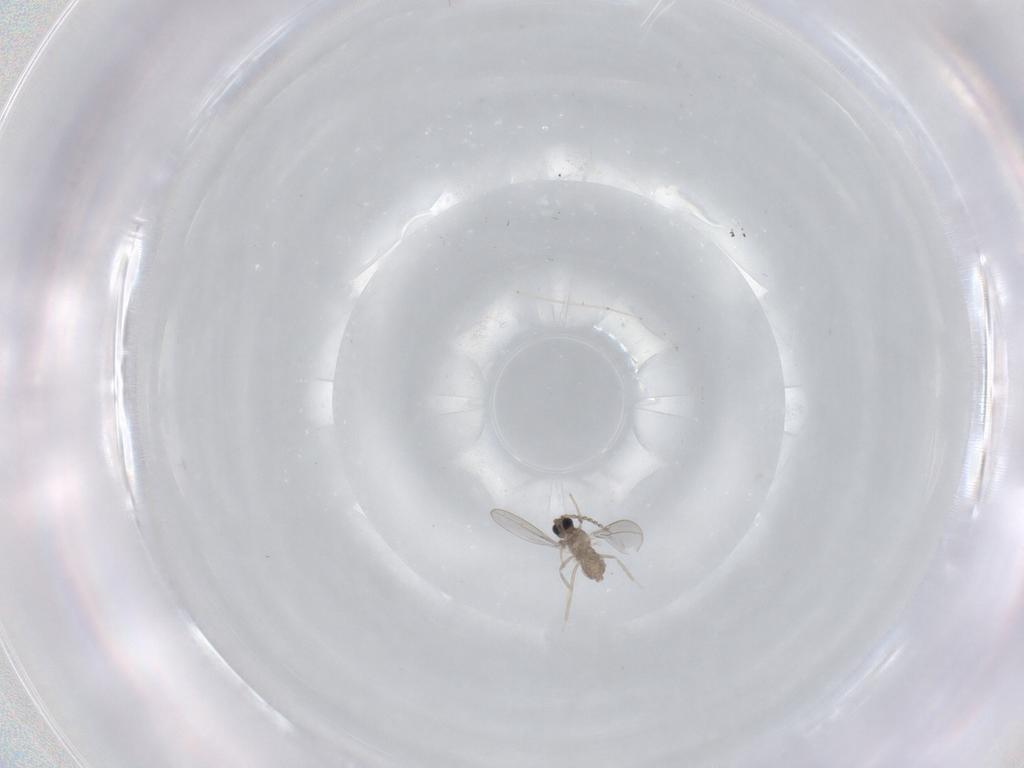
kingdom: Animalia
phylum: Arthropoda
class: Insecta
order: Diptera
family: Cecidomyiidae
